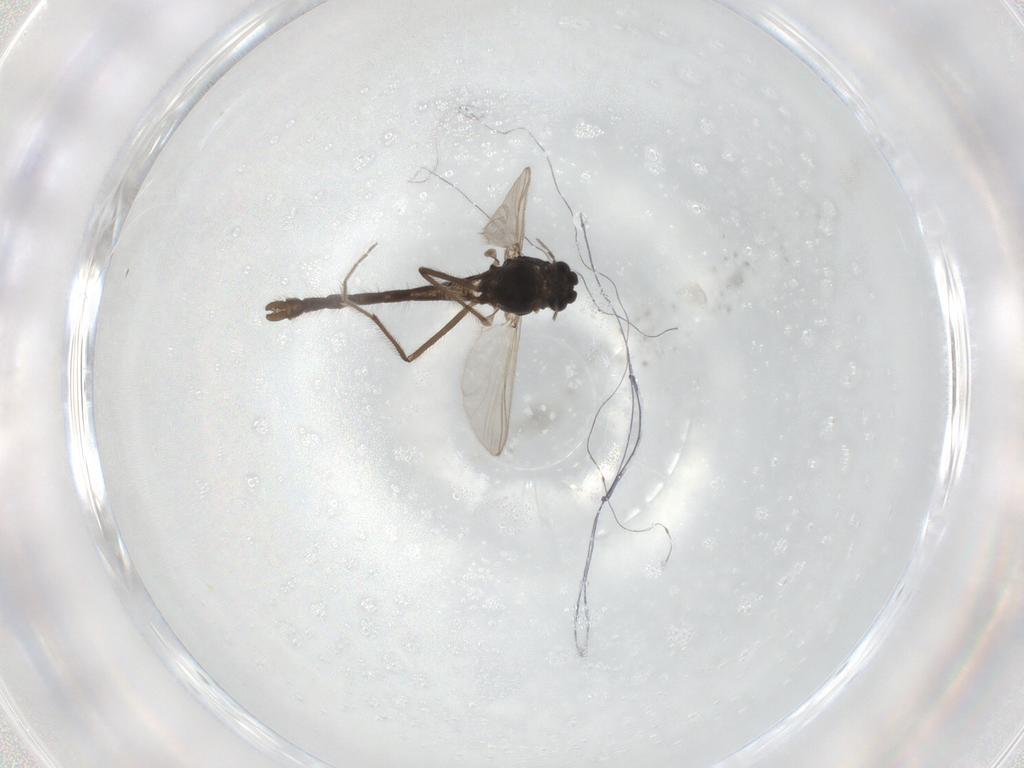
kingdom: Animalia
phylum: Arthropoda
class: Insecta
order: Diptera
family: Chironomidae
